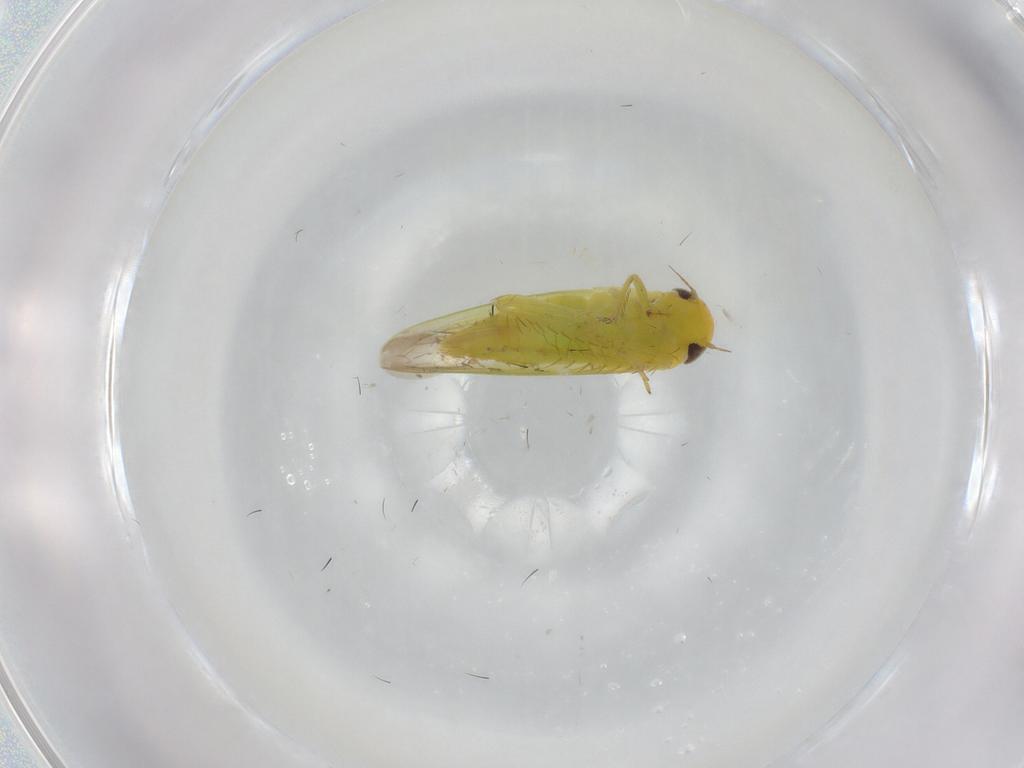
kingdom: Animalia
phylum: Arthropoda
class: Insecta
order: Hemiptera
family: Cicadellidae
